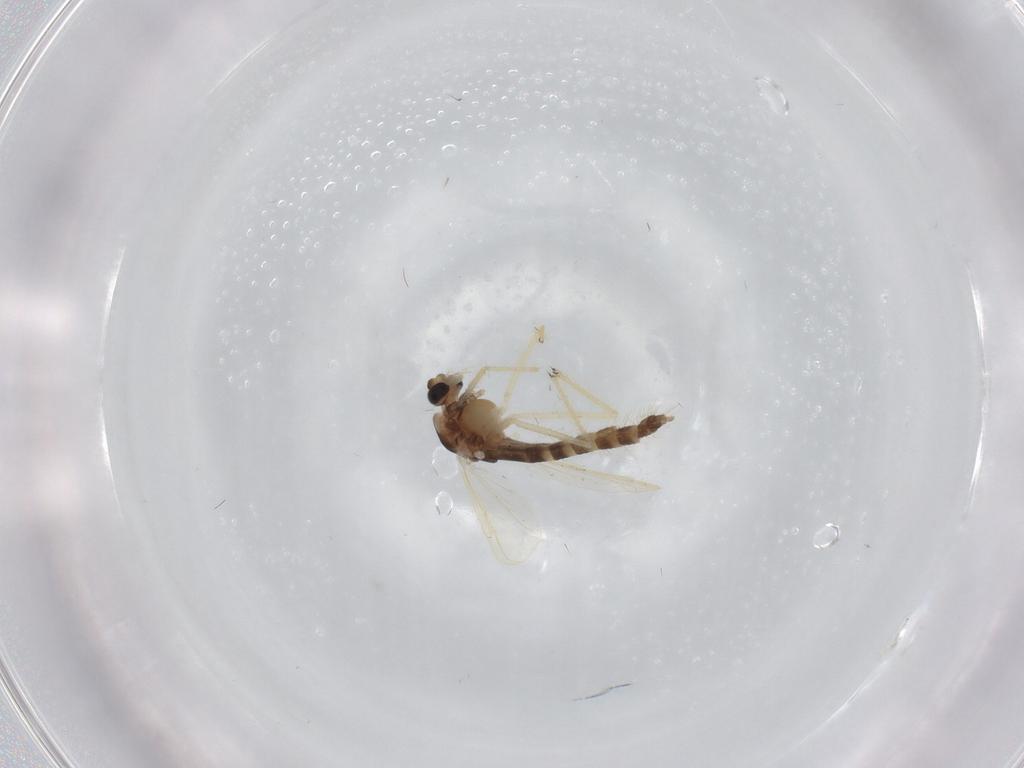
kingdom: Animalia
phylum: Arthropoda
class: Insecta
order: Diptera
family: Chironomidae
